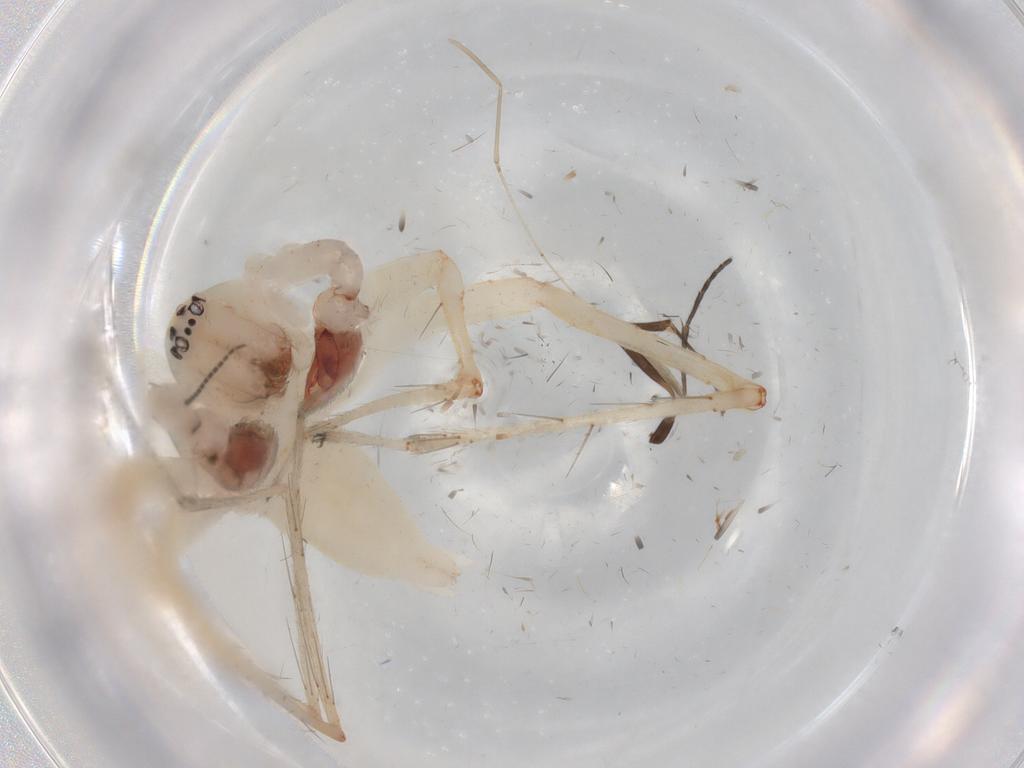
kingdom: Animalia
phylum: Arthropoda
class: Arachnida
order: Araneae
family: Anyphaenidae
